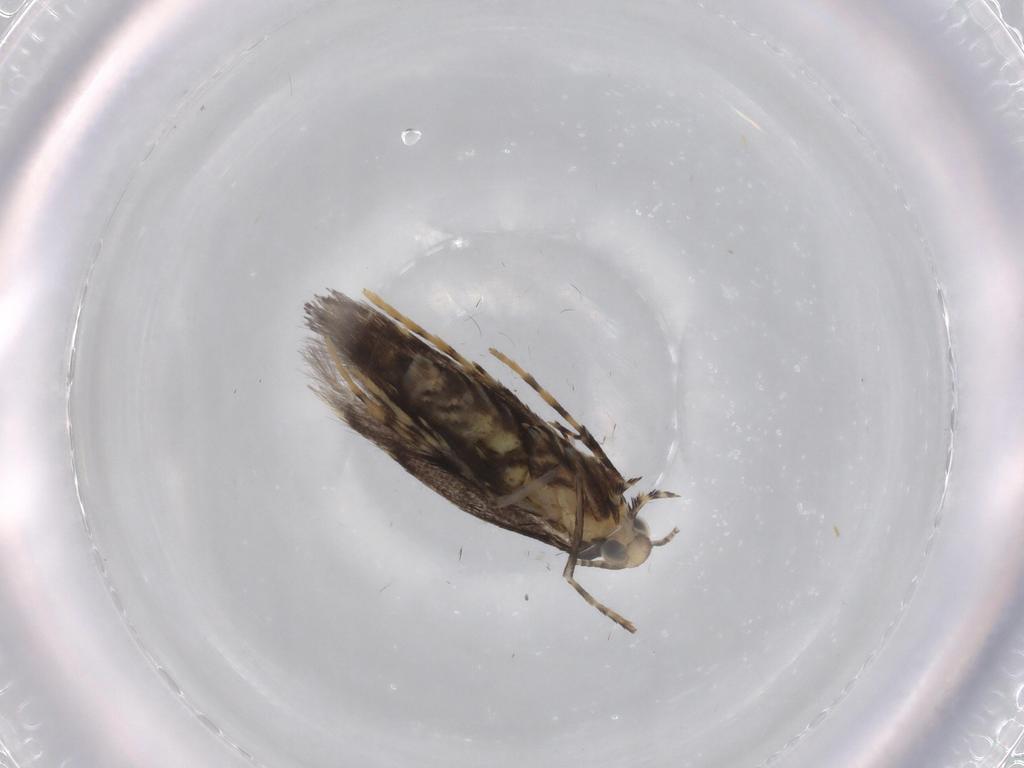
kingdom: Animalia
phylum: Arthropoda
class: Insecta
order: Lepidoptera
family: Gracillariidae
